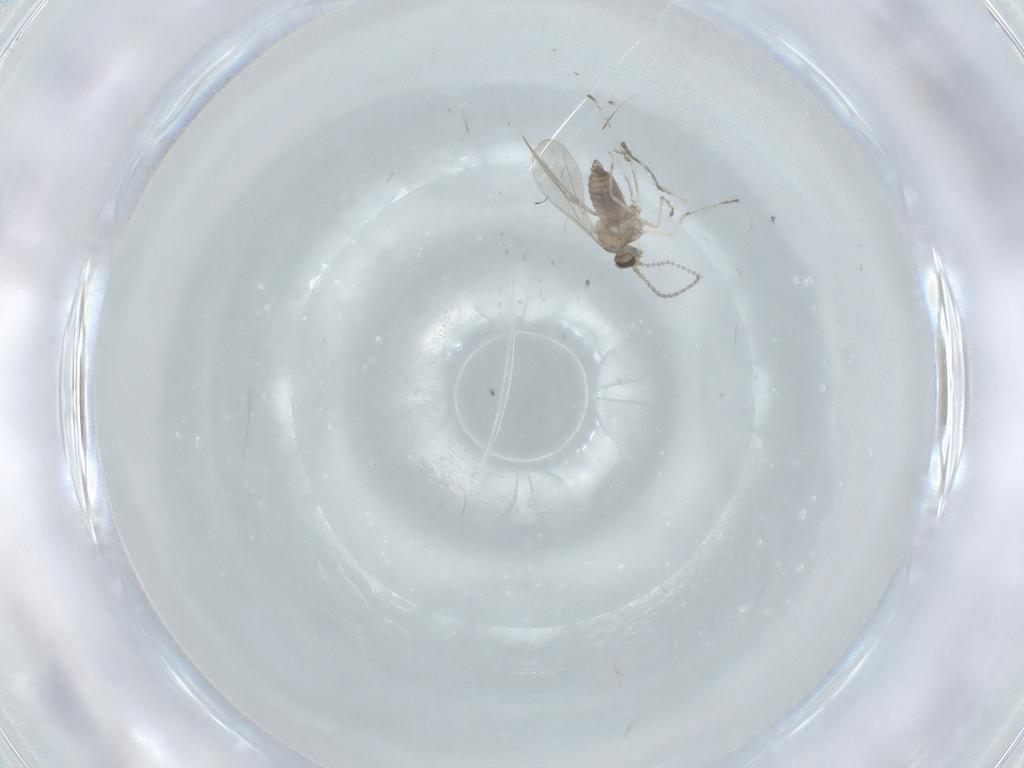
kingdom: Animalia
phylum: Arthropoda
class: Insecta
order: Diptera
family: Cecidomyiidae
